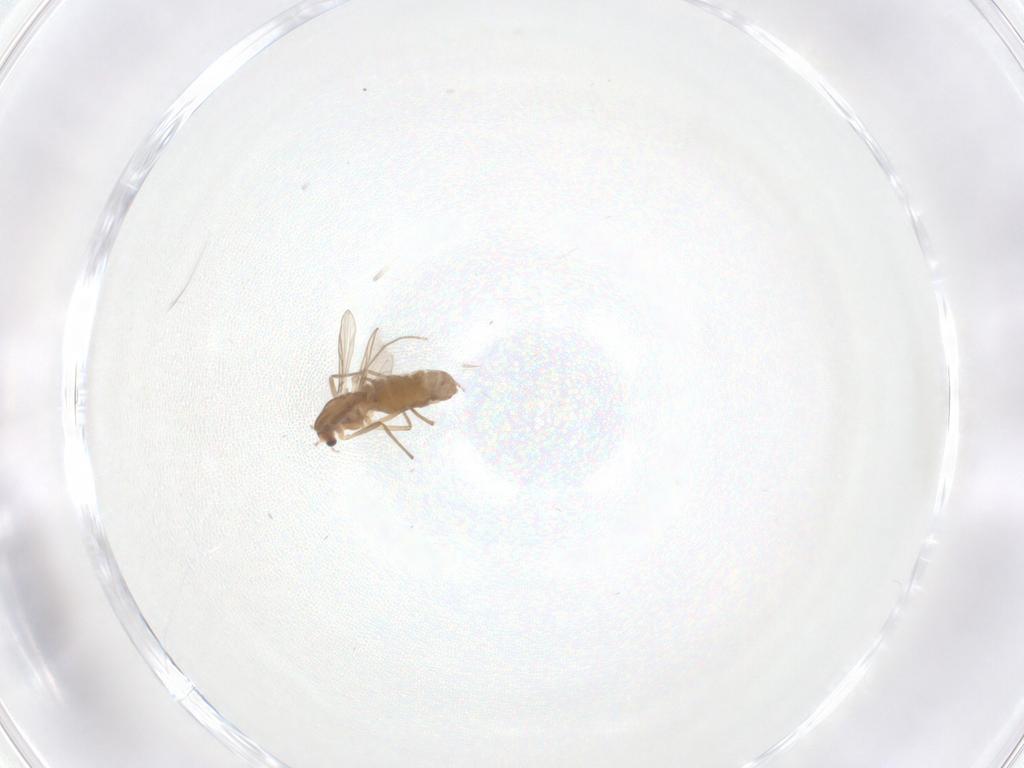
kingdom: Animalia
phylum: Arthropoda
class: Insecta
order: Diptera
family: Chironomidae
